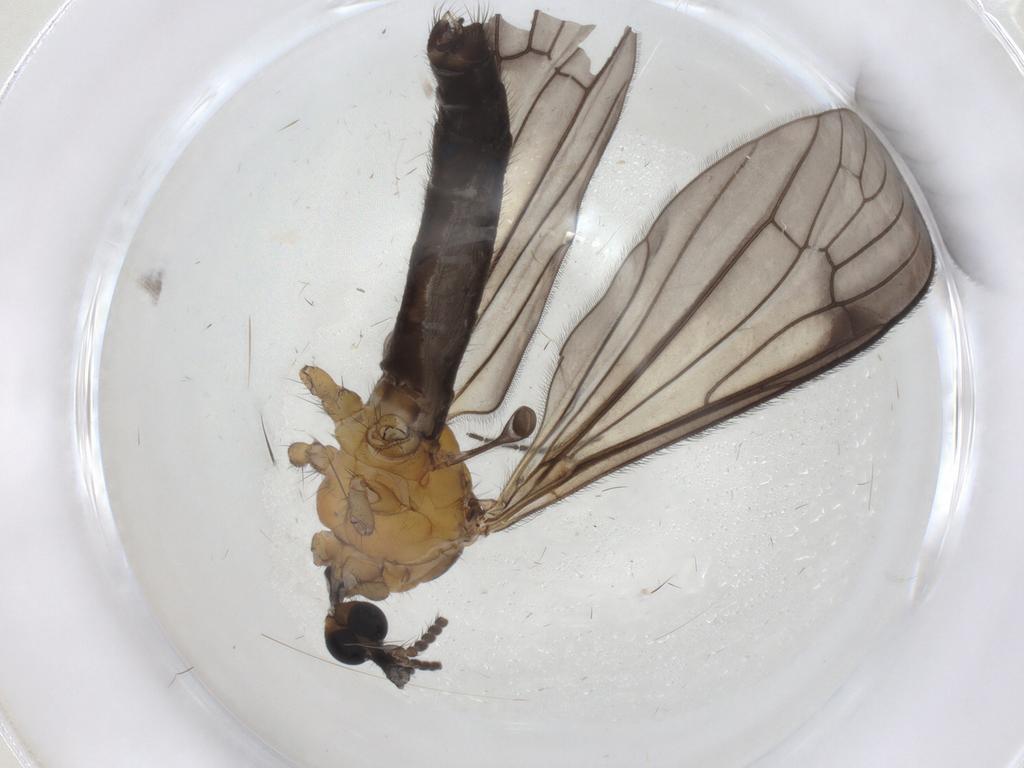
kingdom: Animalia
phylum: Arthropoda
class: Insecta
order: Diptera
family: Limoniidae
